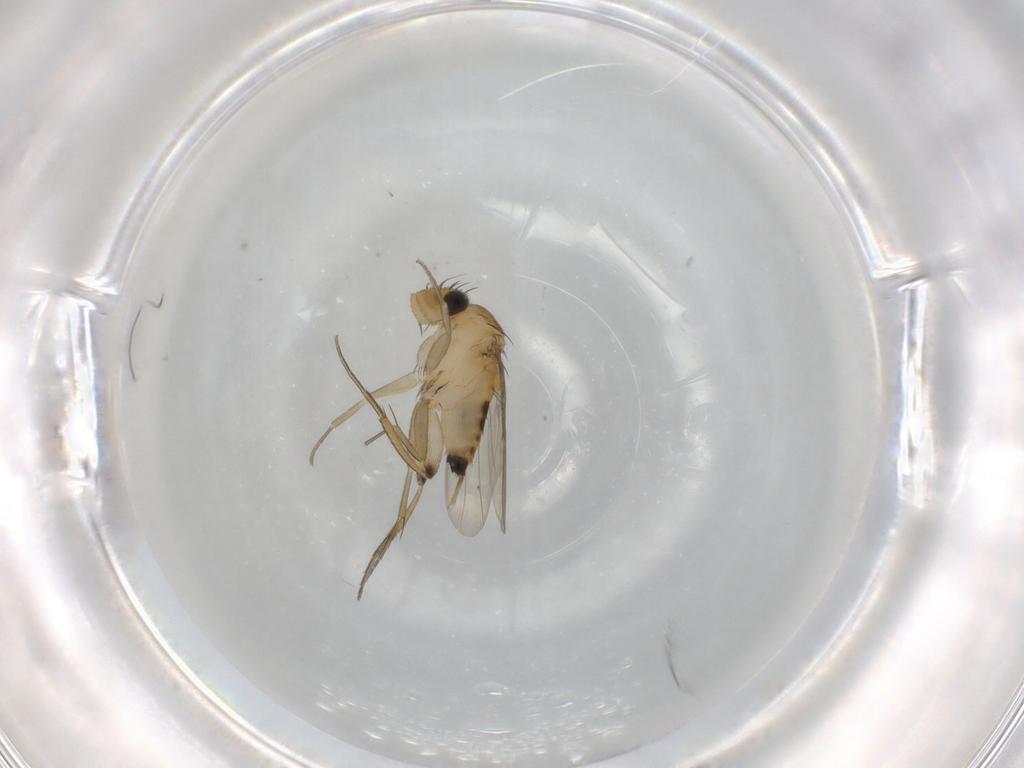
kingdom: Animalia
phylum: Arthropoda
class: Insecta
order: Diptera
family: Phoridae
